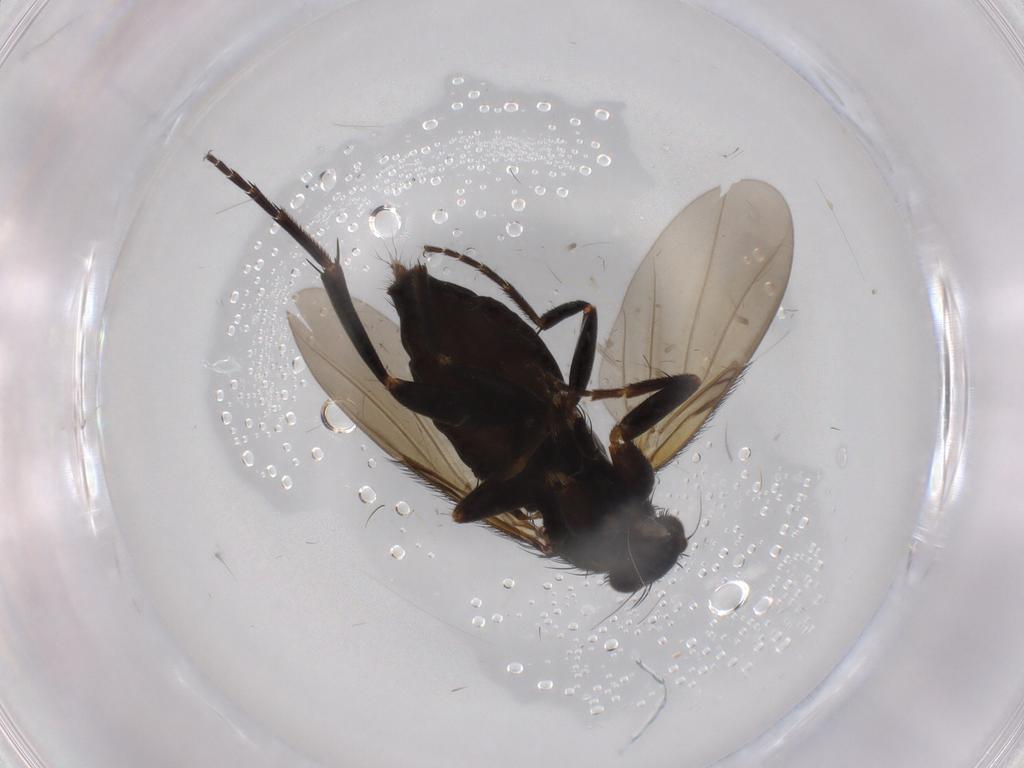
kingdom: Animalia
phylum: Arthropoda
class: Insecta
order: Diptera
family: Phoridae
